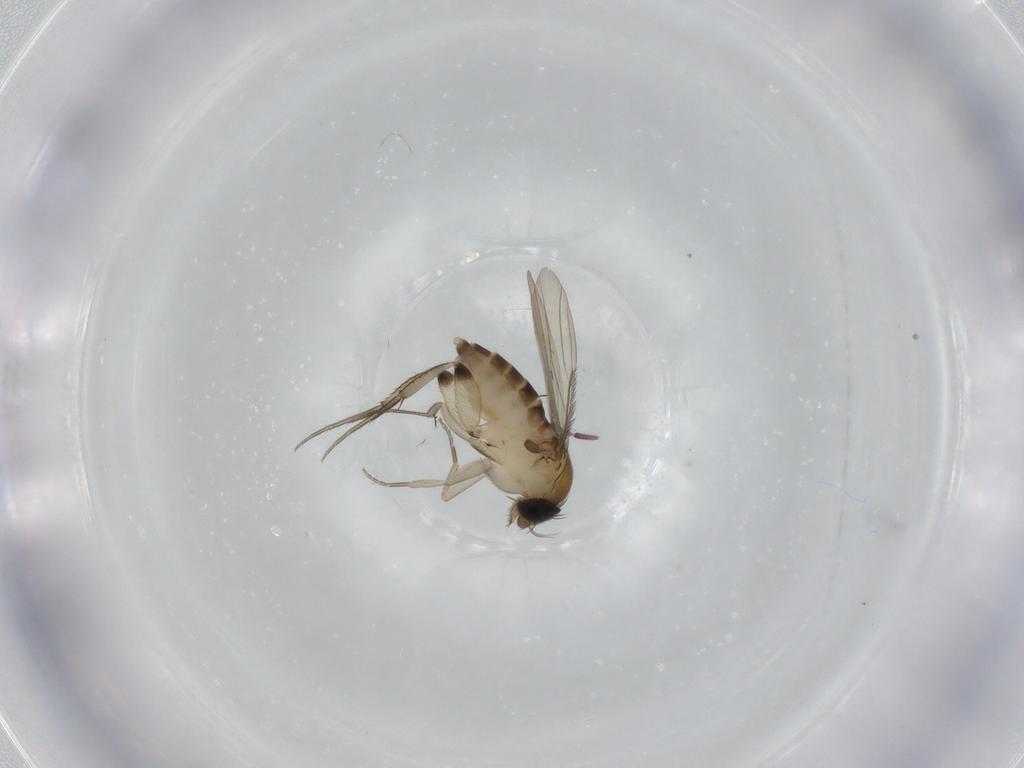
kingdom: Animalia
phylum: Arthropoda
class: Insecta
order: Diptera
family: Phoridae
